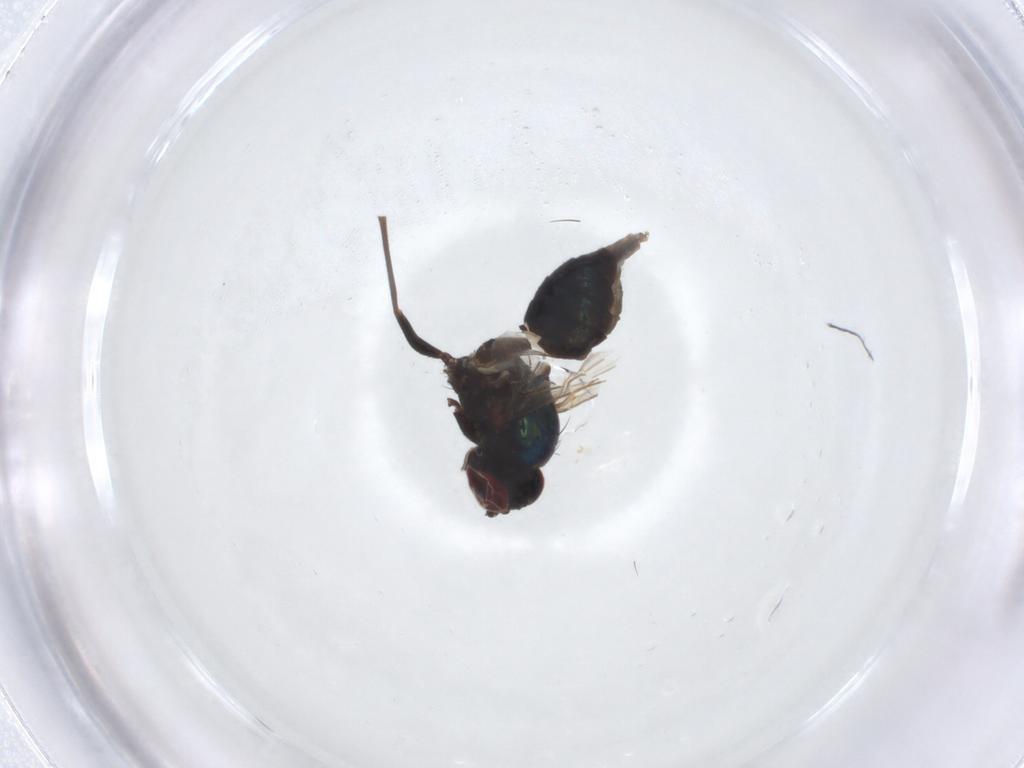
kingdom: Animalia
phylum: Arthropoda
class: Insecta
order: Diptera
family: Dolichopodidae
